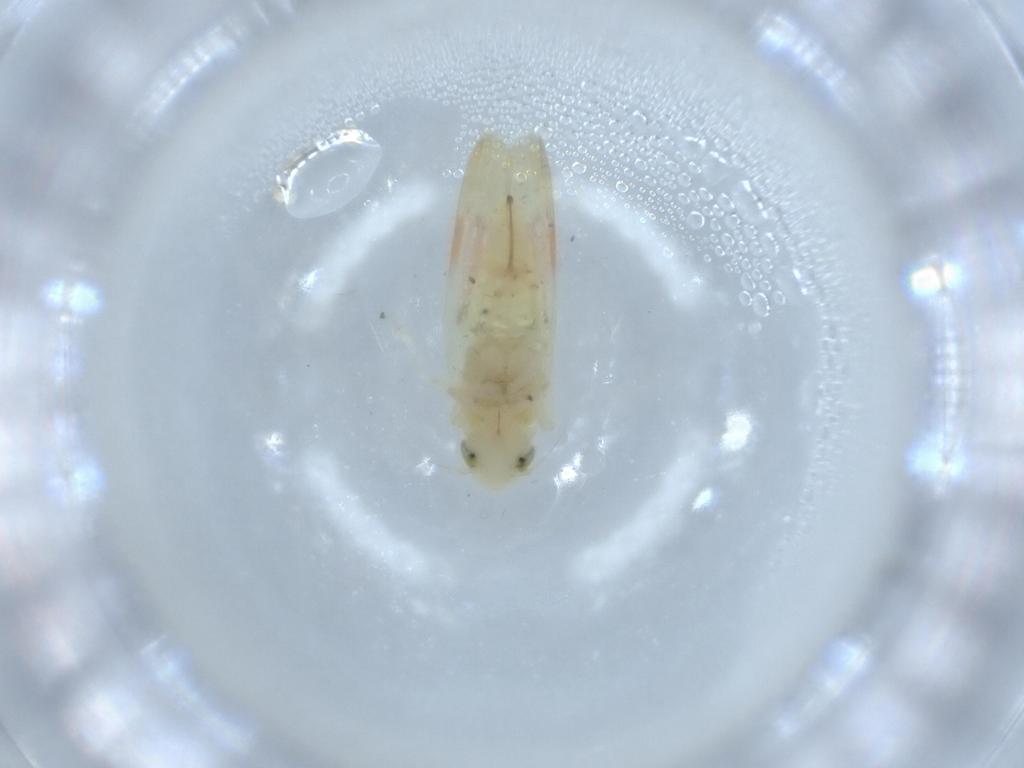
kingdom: Animalia
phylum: Arthropoda
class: Insecta
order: Hemiptera
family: Cicadellidae
